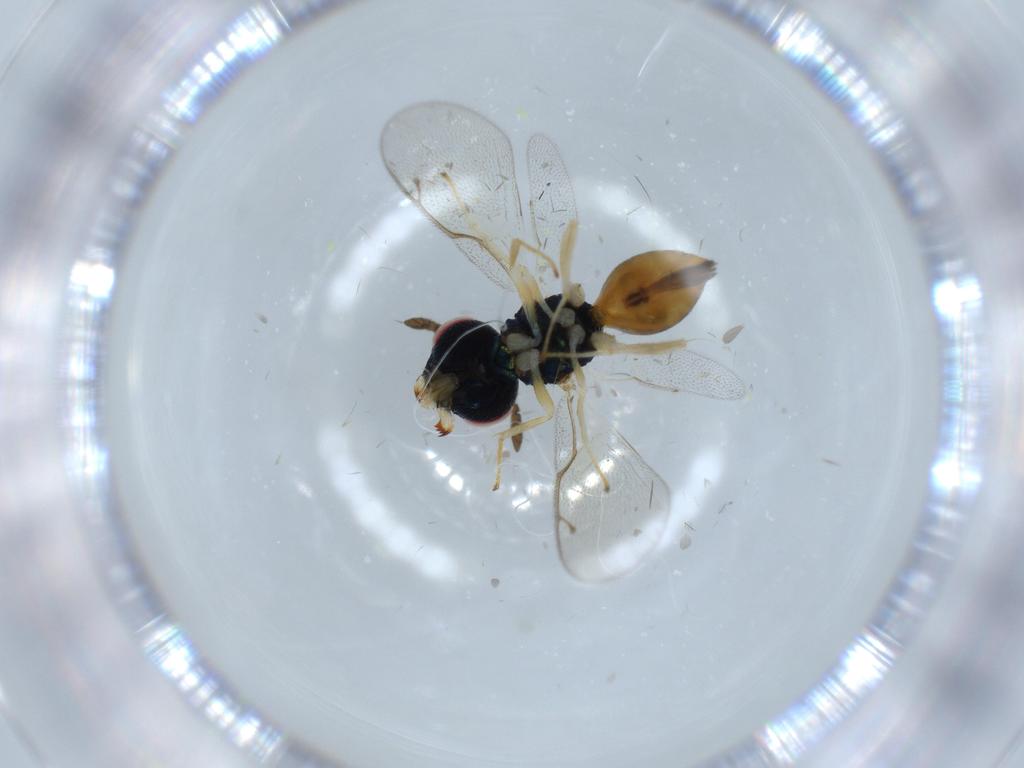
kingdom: Animalia
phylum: Arthropoda
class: Insecta
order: Hymenoptera
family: Pteromalidae
